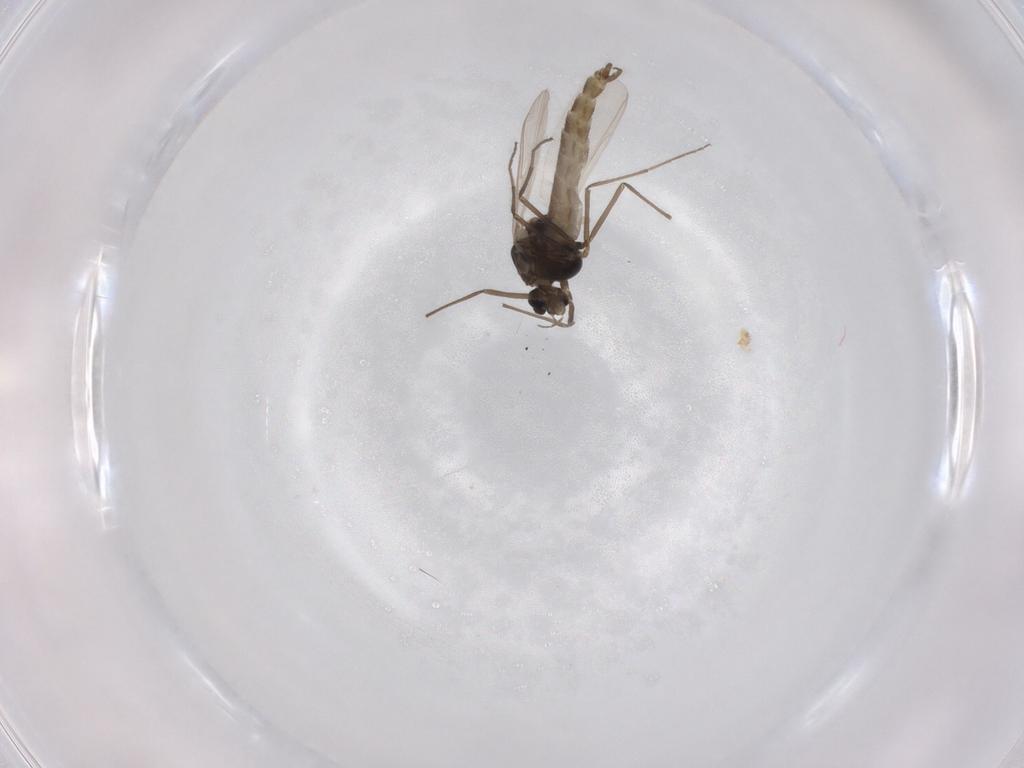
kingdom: Animalia
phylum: Arthropoda
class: Insecta
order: Diptera
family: Chironomidae
